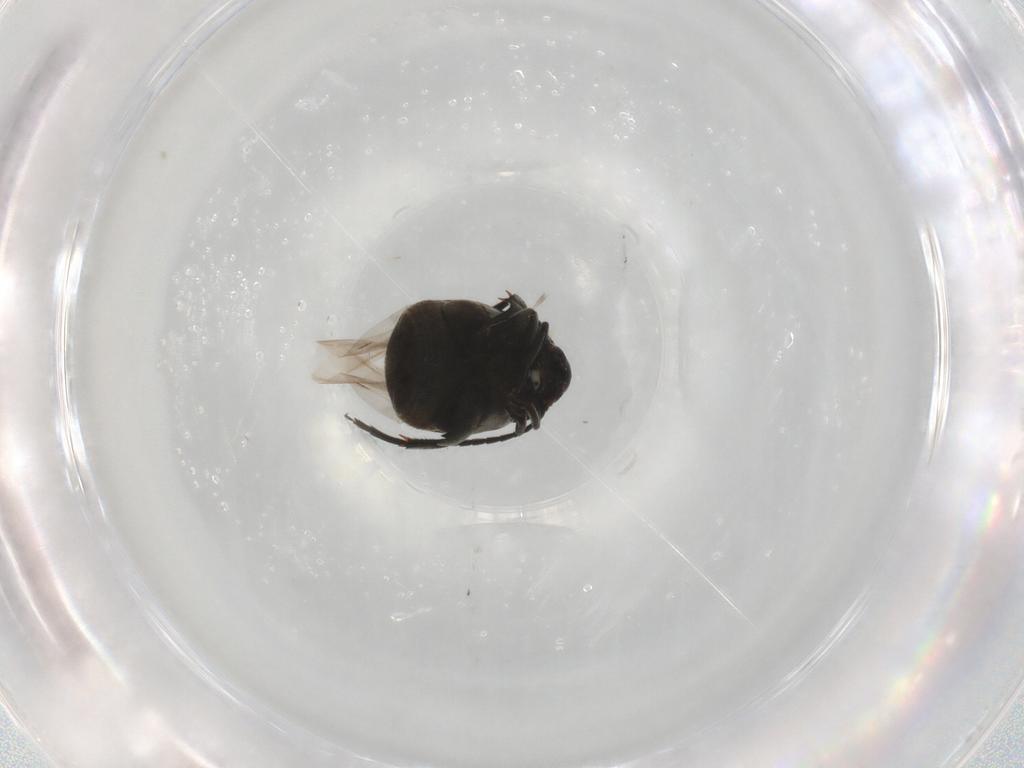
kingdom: Animalia
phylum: Arthropoda
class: Insecta
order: Coleoptera
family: Chrysomelidae
